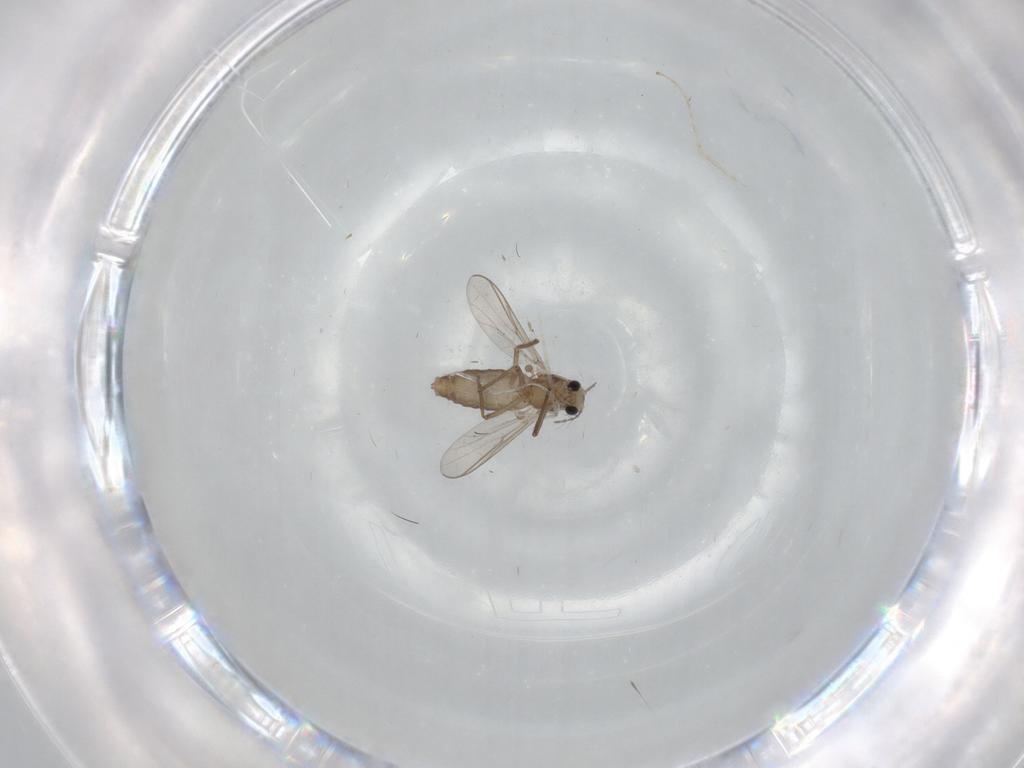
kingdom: Animalia
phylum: Arthropoda
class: Insecta
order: Diptera
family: Chironomidae
